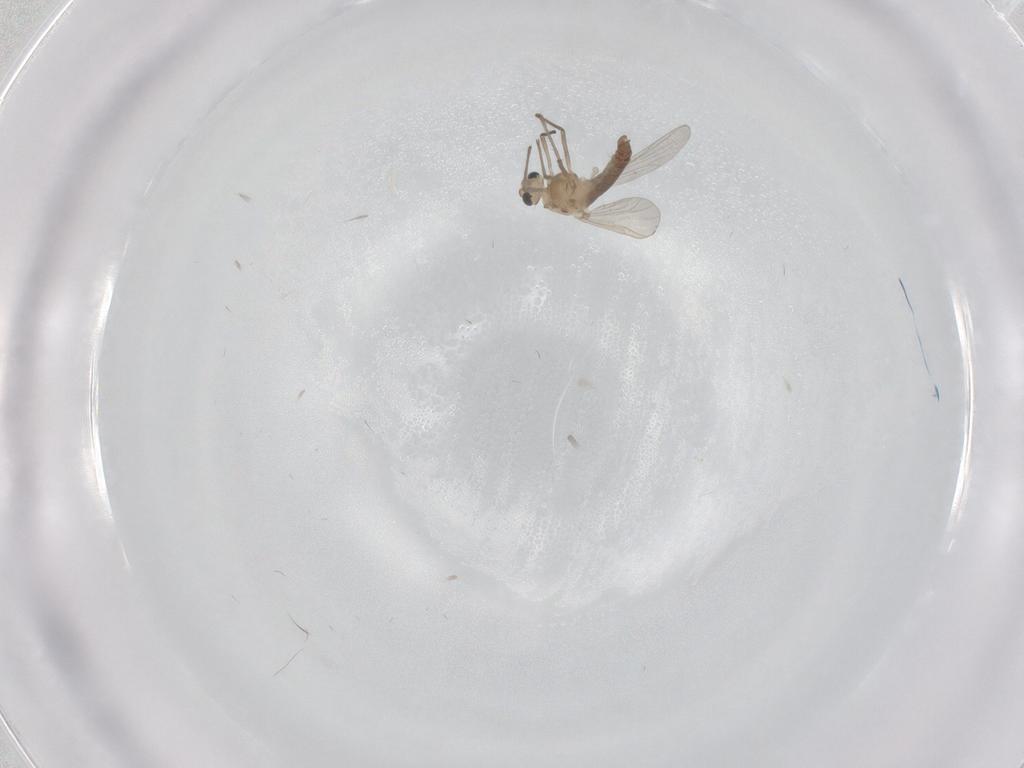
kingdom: Animalia
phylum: Arthropoda
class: Insecta
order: Diptera
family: Chironomidae
